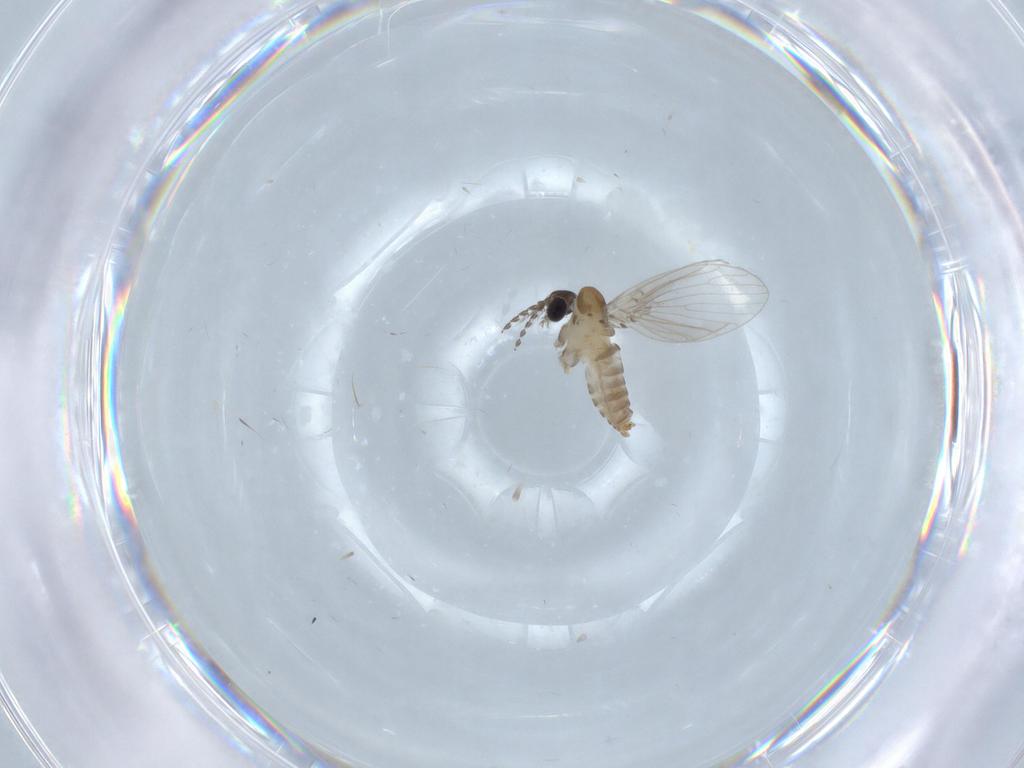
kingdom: Animalia
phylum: Arthropoda
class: Insecta
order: Diptera
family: Psychodidae
